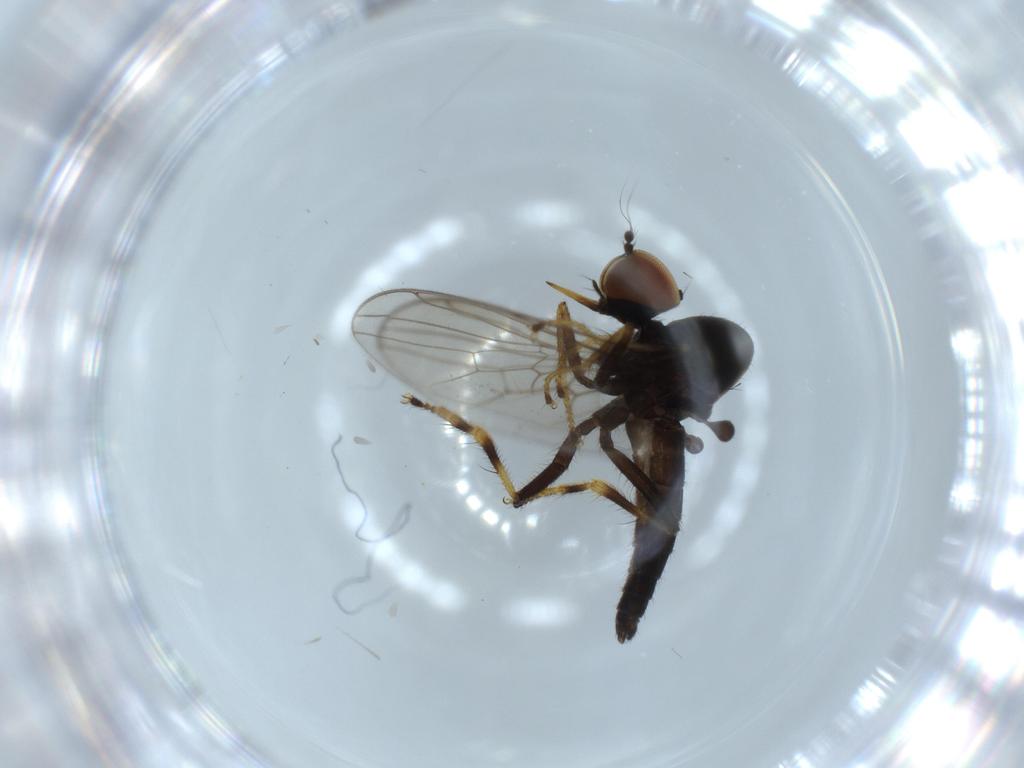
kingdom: Animalia
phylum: Arthropoda
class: Insecta
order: Diptera
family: Hybotidae
